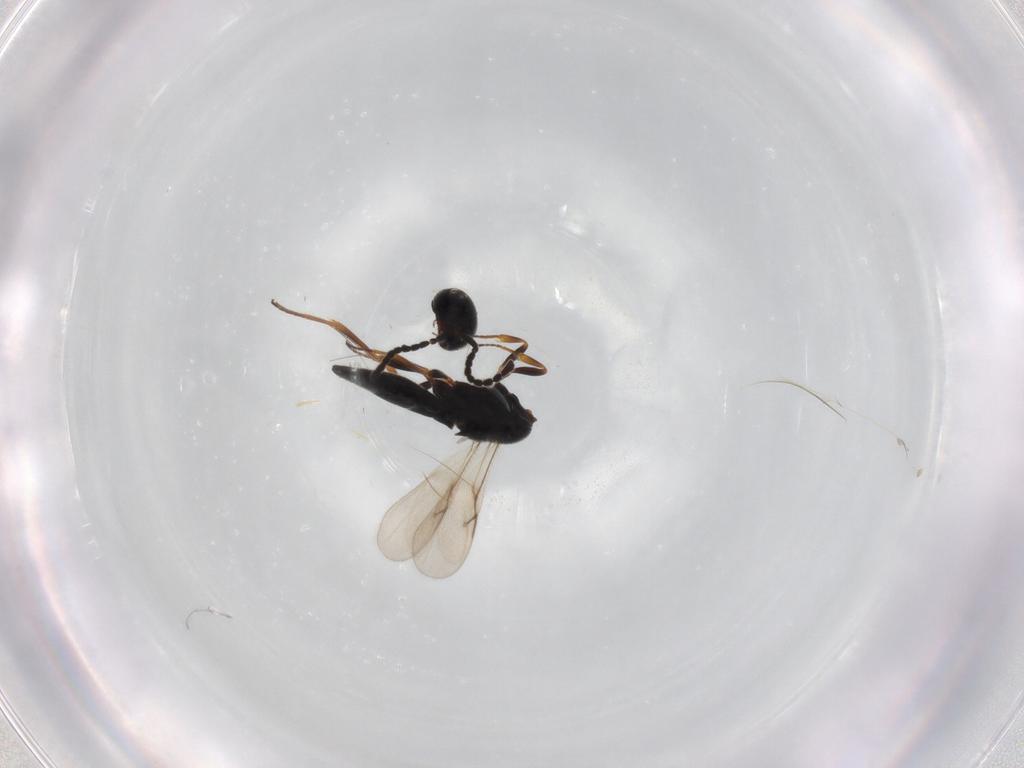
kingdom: Animalia
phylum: Arthropoda
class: Insecta
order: Hymenoptera
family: Scelionidae
